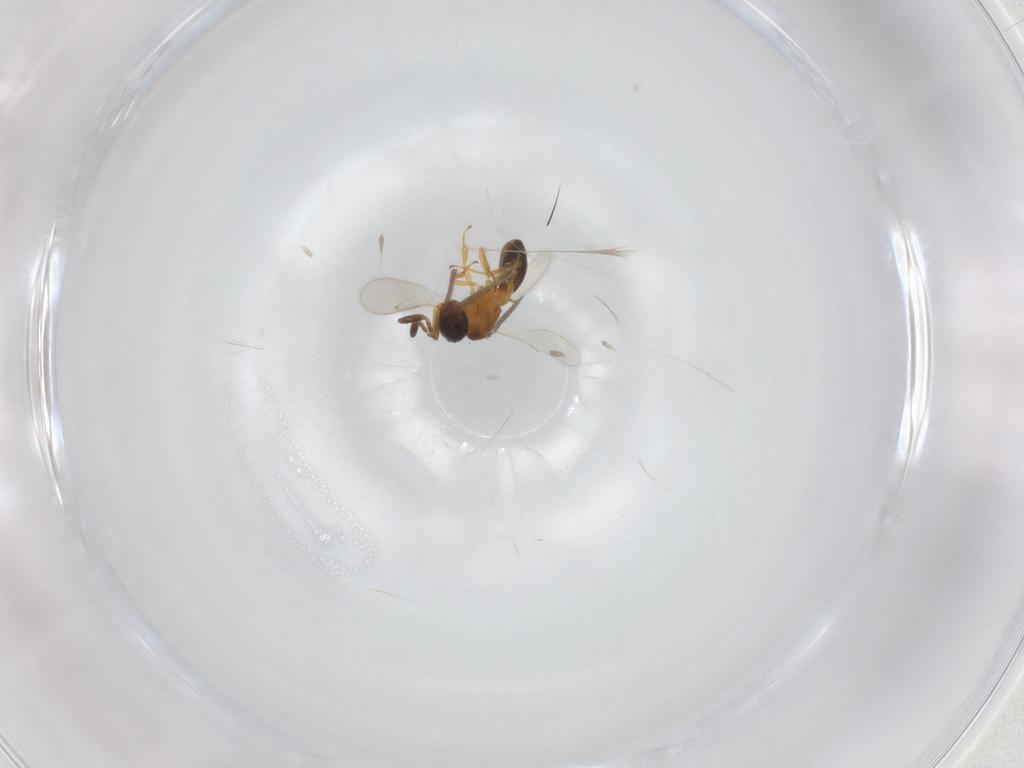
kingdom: Animalia
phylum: Arthropoda
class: Insecta
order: Hymenoptera
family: Scelionidae
